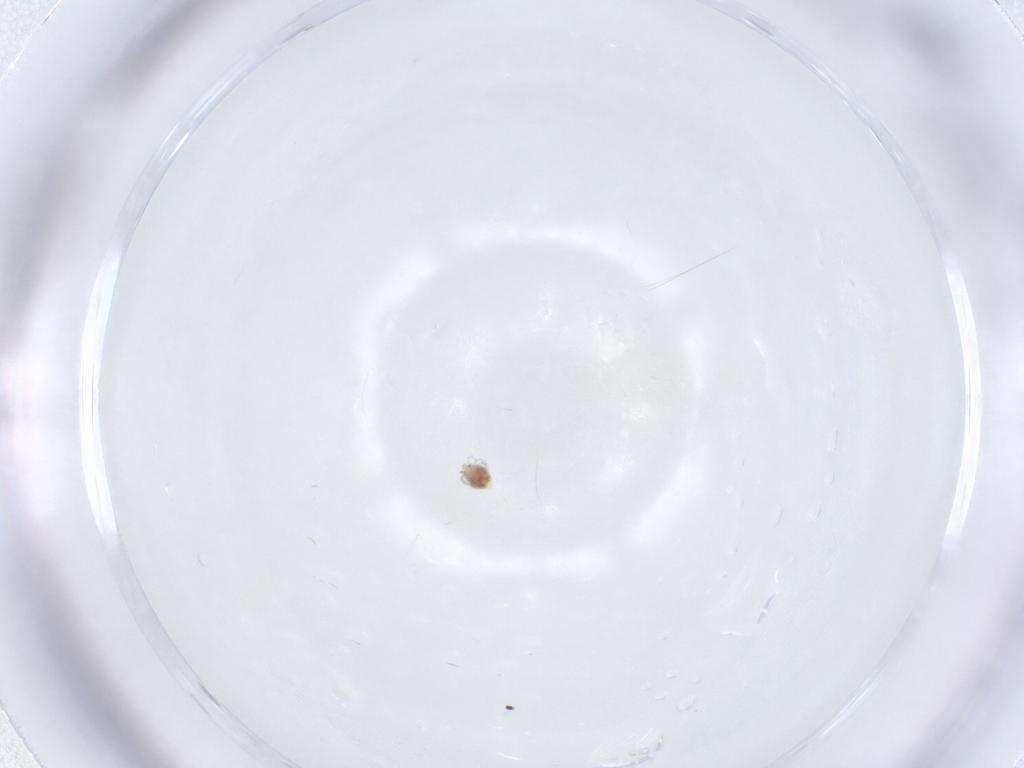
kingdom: Animalia
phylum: Arthropoda
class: Arachnida
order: Trombidiformes
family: Unionicolidae
